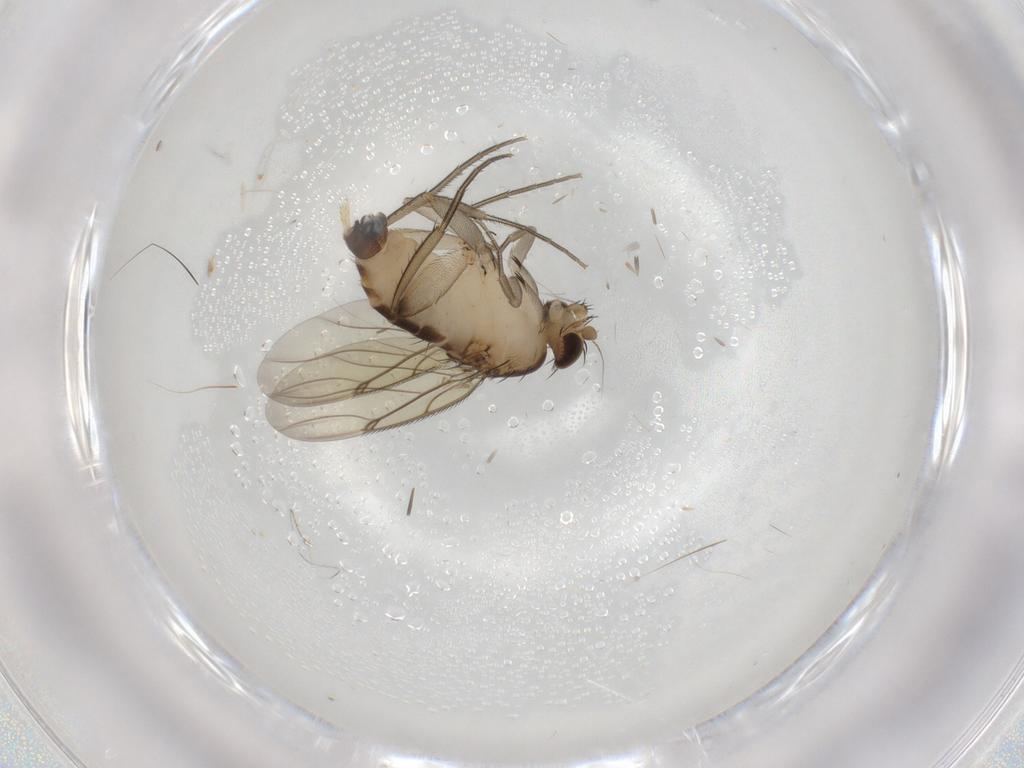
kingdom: Animalia
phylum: Arthropoda
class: Insecta
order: Diptera
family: Phoridae
